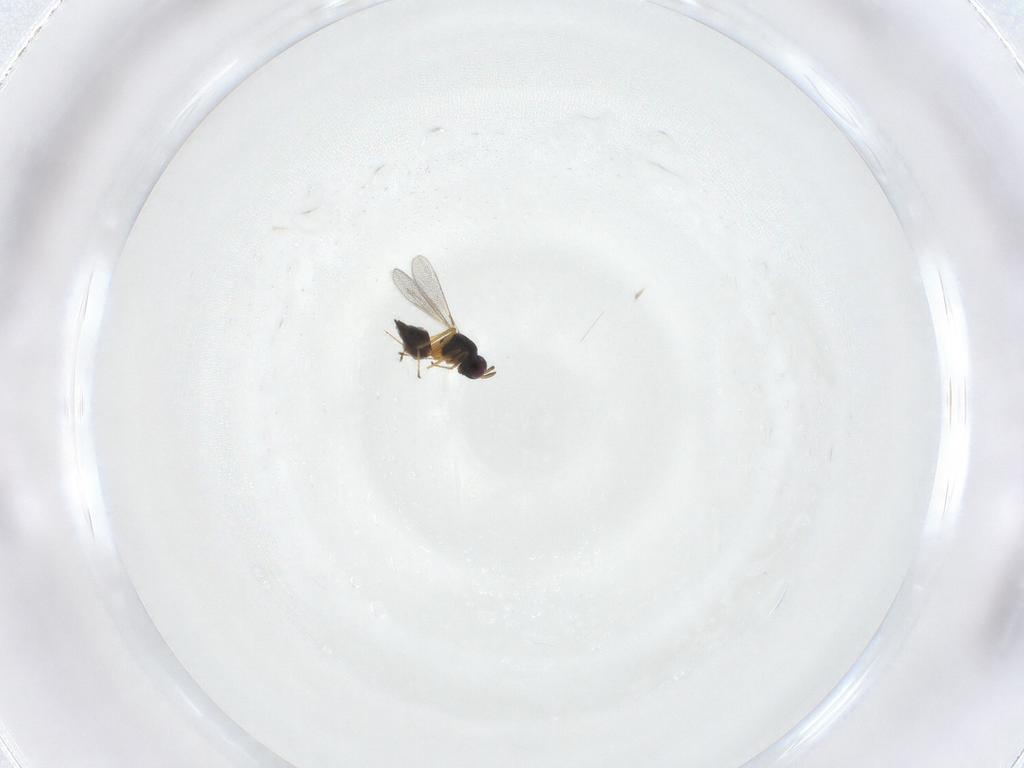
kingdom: Animalia
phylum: Arthropoda
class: Insecta
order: Hymenoptera
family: Mymaridae
